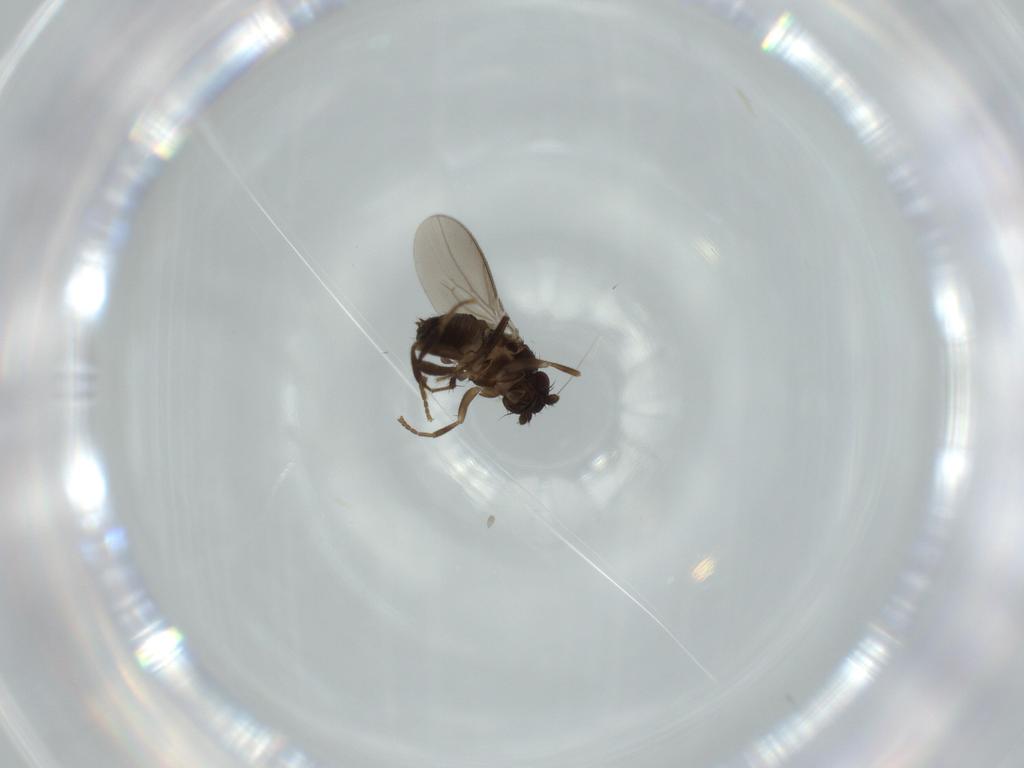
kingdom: Animalia
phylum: Arthropoda
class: Insecta
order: Diptera
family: Sphaeroceridae
